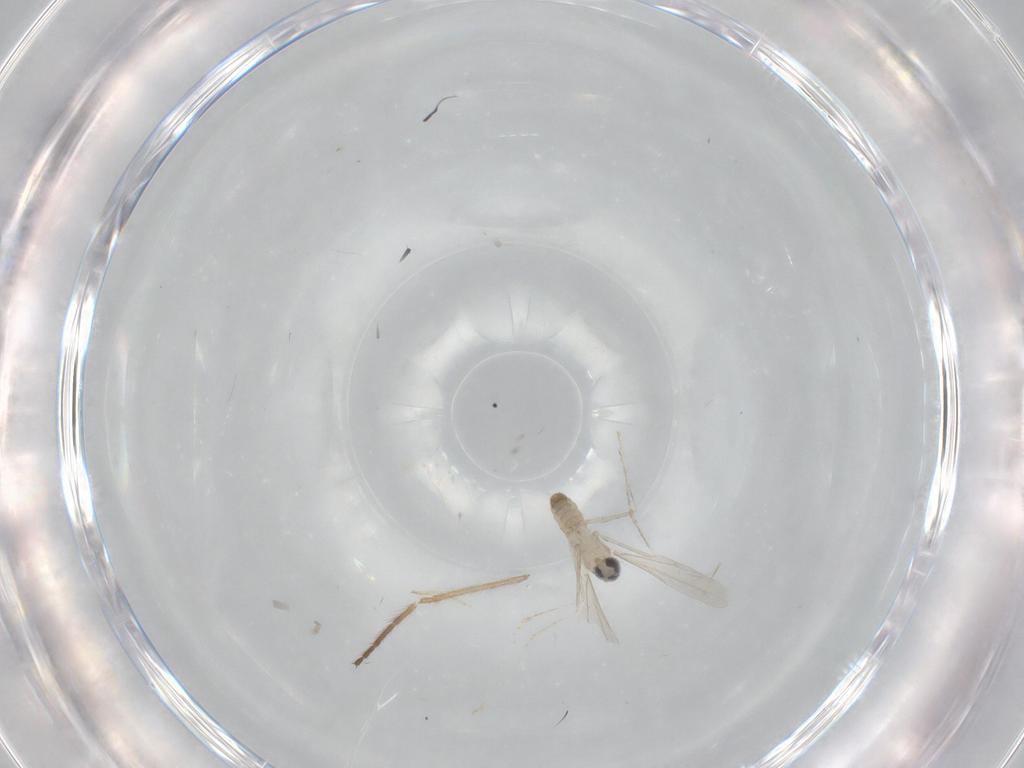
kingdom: Animalia
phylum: Arthropoda
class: Insecta
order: Diptera
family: Cecidomyiidae
